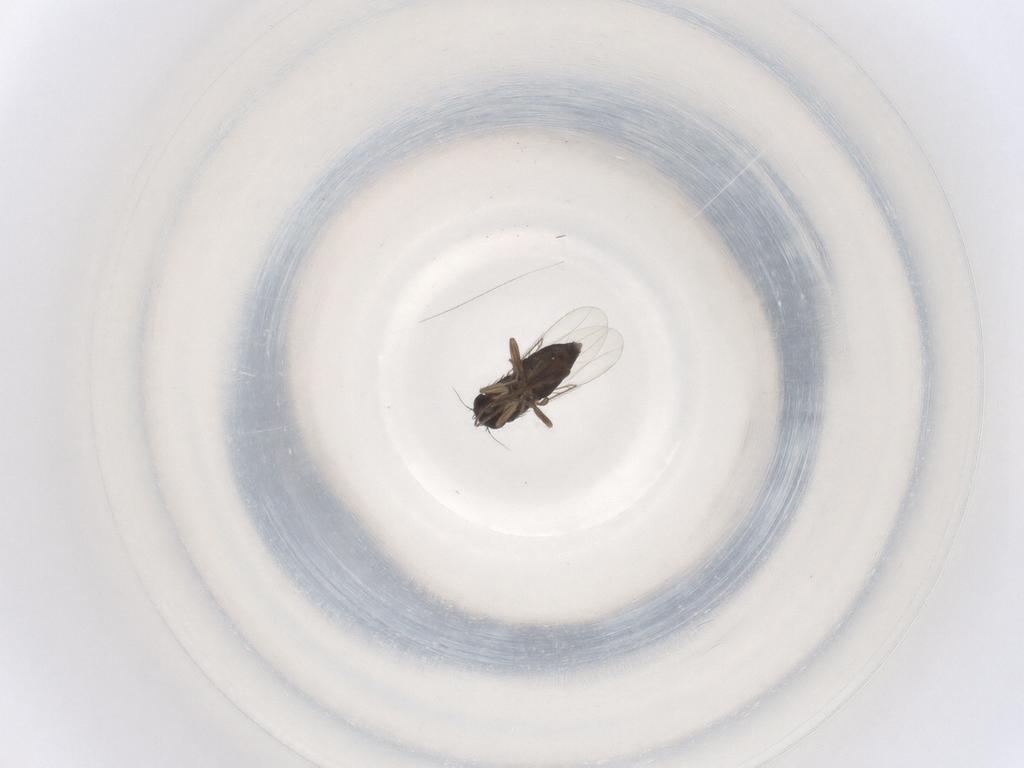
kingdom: Animalia
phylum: Arthropoda
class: Insecta
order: Diptera
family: Phoridae
